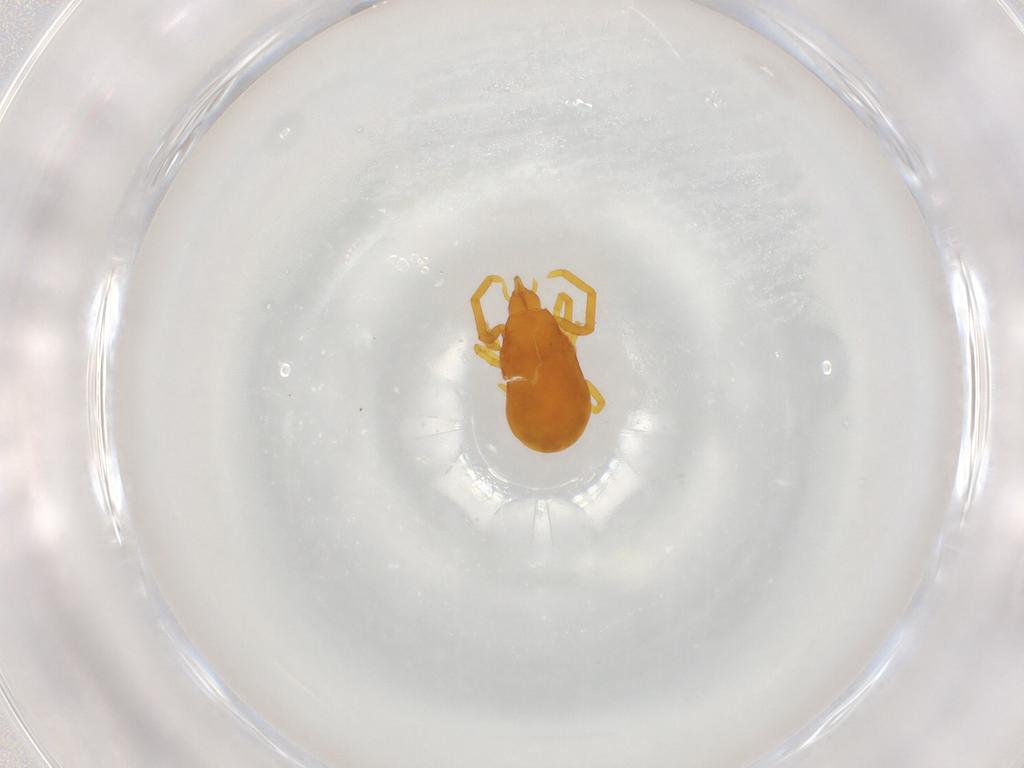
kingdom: Animalia
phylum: Arthropoda
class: Arachnida
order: Trombidiformes
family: Labidostommidae
